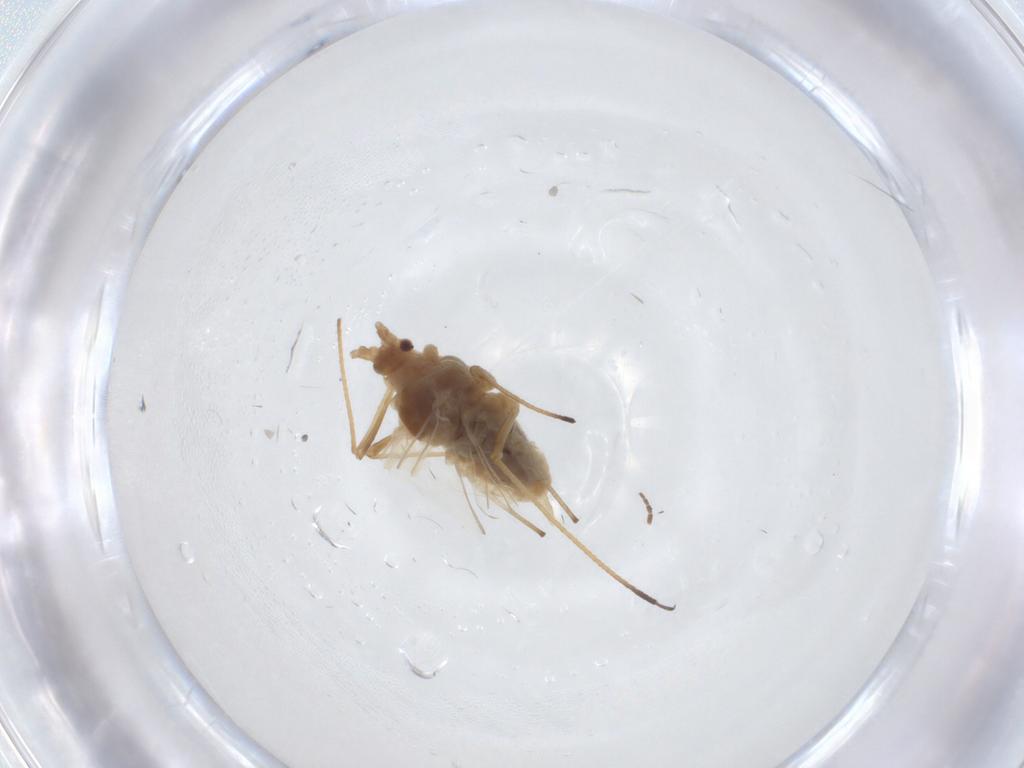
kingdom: Animalia
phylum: Arthropoda
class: Insecta
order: Hemiptera
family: Aphididae
